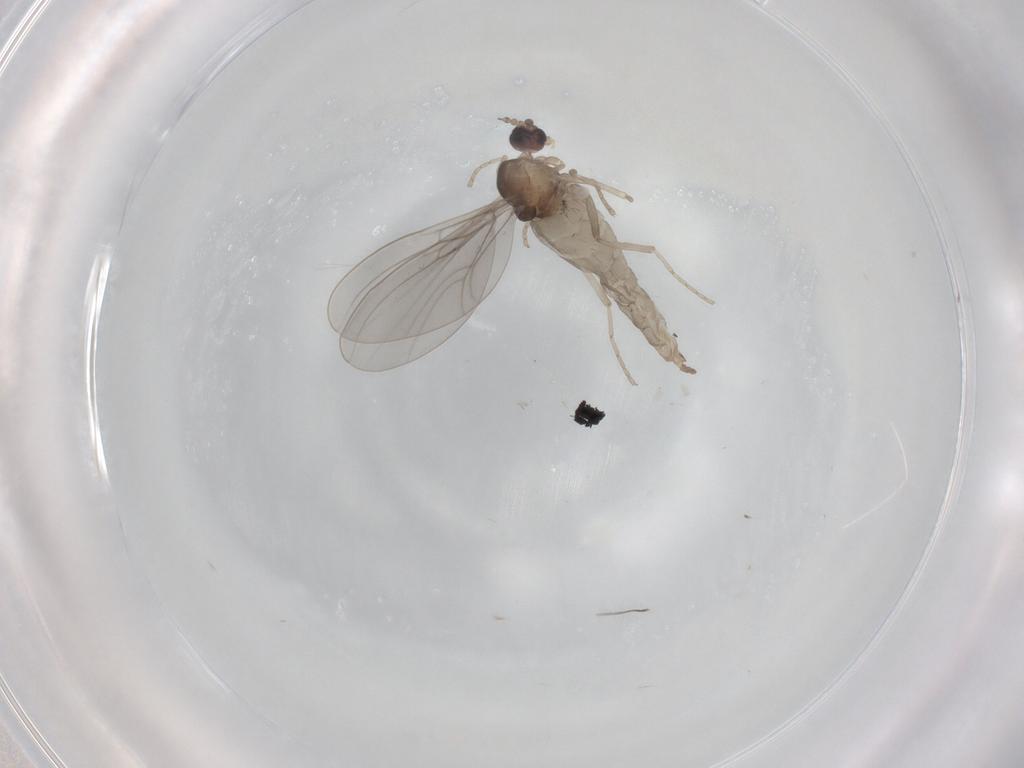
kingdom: Animalia
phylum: Arthropoda
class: Insecta
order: Diptera
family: Cecidomyiidae
